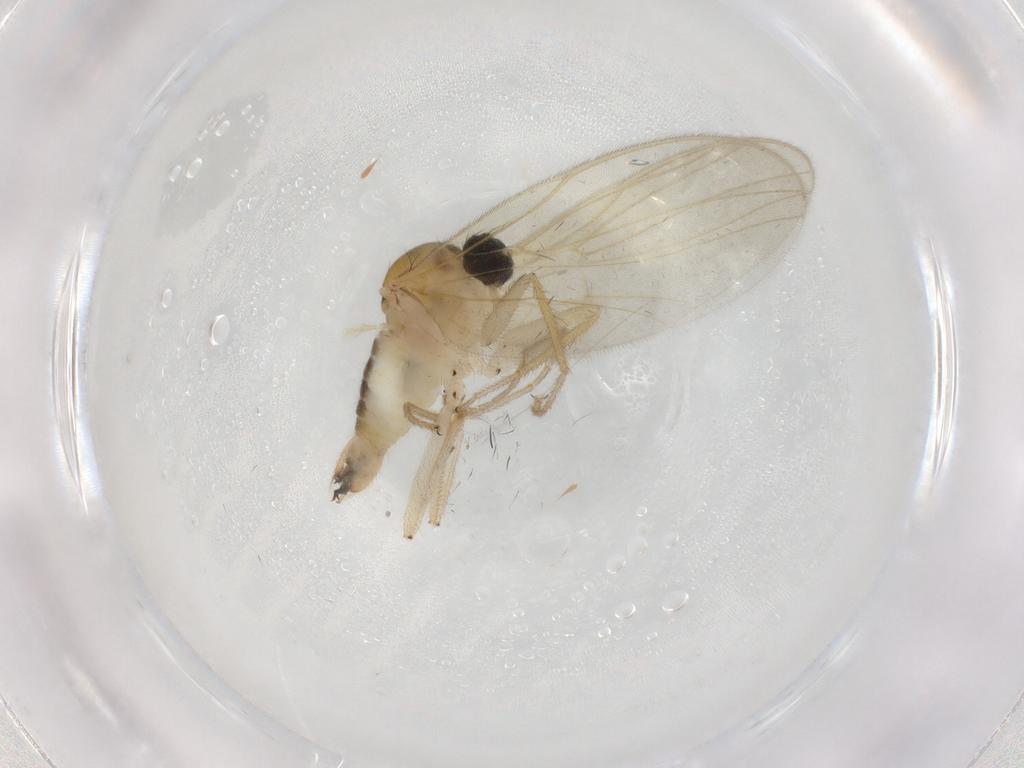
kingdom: Animalia
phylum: Arthropoda
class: Insecta
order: Diptera
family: Hybotidae
